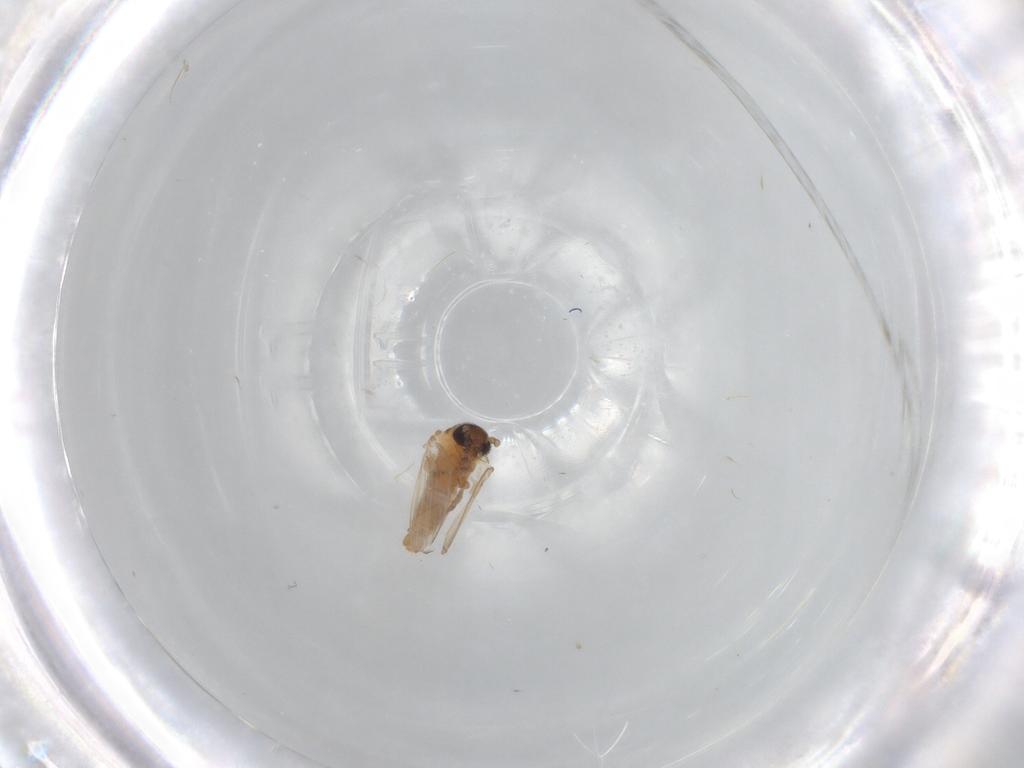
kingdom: Animalia
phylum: Arthropoda
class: Insecta
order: Diptera
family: Psychodidae
